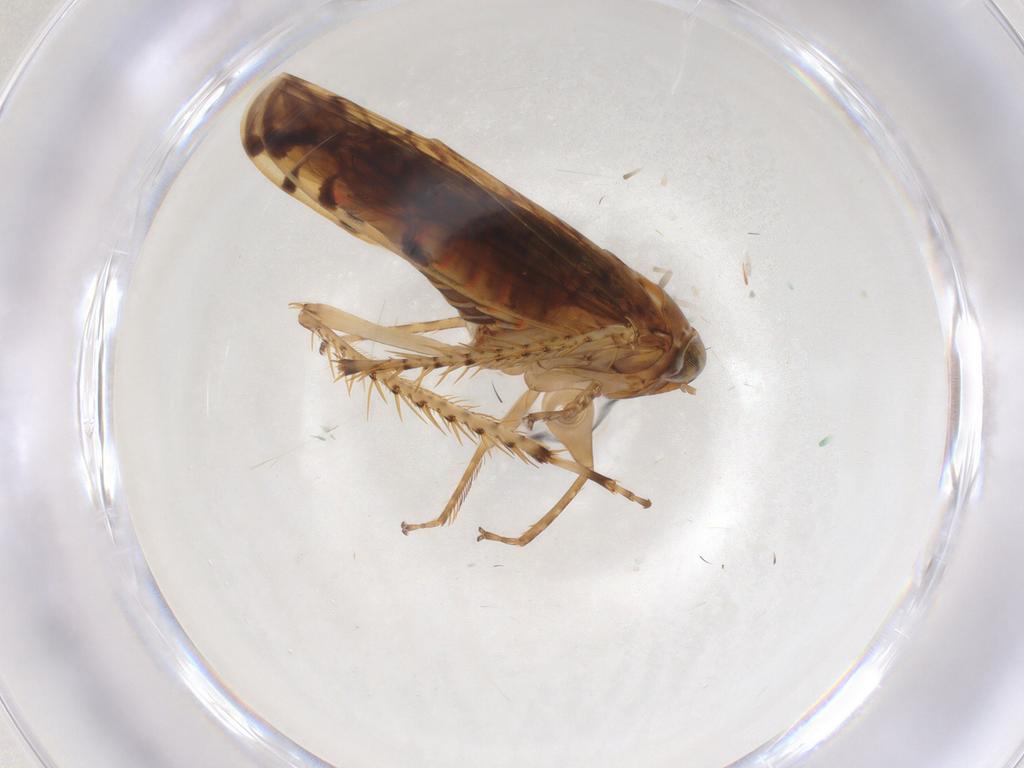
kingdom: Animalia
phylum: Arthropoda
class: Insecta
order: Hemiptera
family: Cicadellidae
